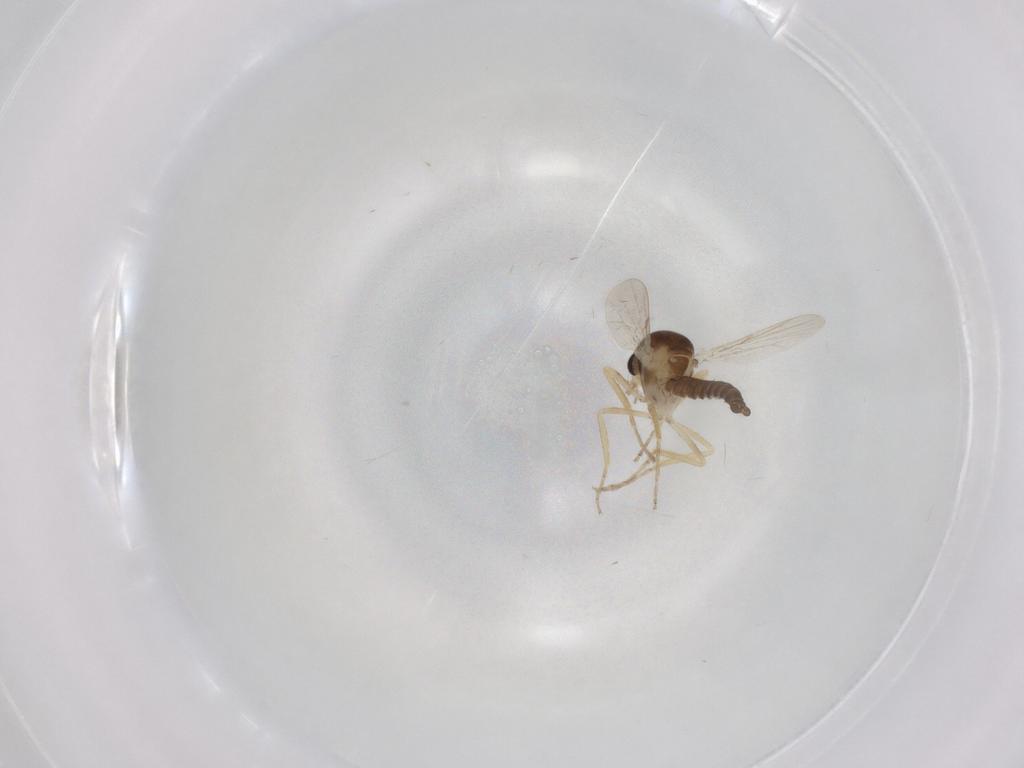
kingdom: Animalia
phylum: Arthropoda
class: Insecta
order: Diptera
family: Ceratopogonidae
